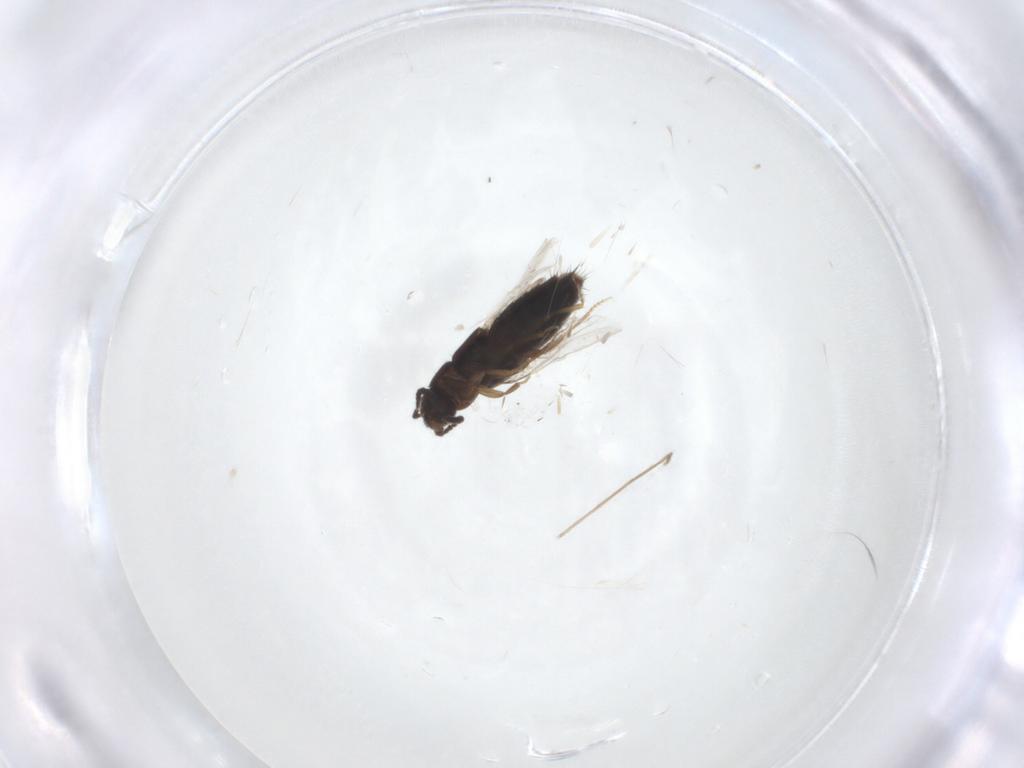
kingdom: Animalia
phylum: Arthropoda
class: Insecta
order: Coleoptera
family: Staphylinidae
